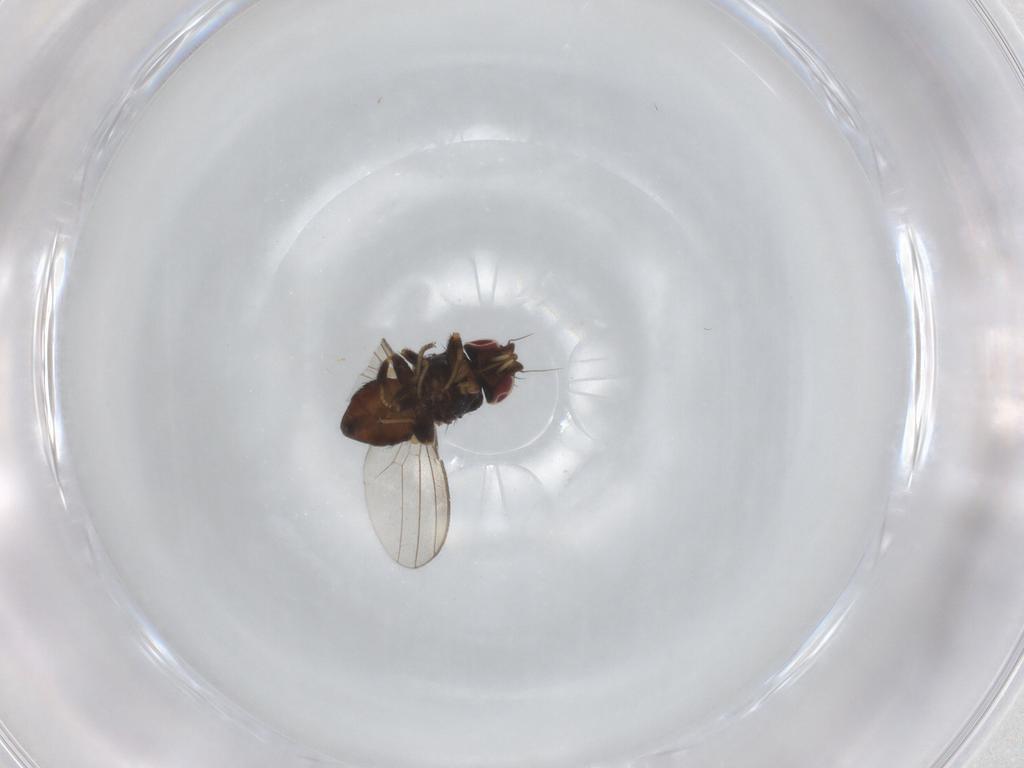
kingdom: Animalia
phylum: Arthropoda
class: Insecta
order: Diptera
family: Milichiidae
